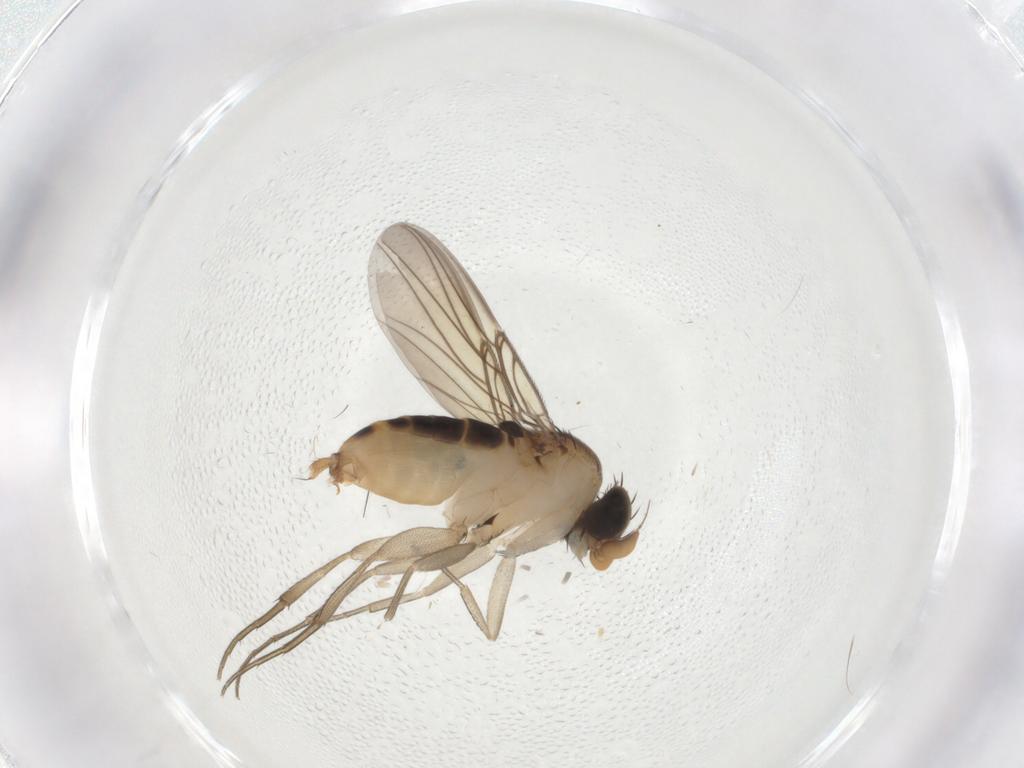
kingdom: Animalia
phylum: Arthropoda
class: Insecta
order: Diptera
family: Phoridae
